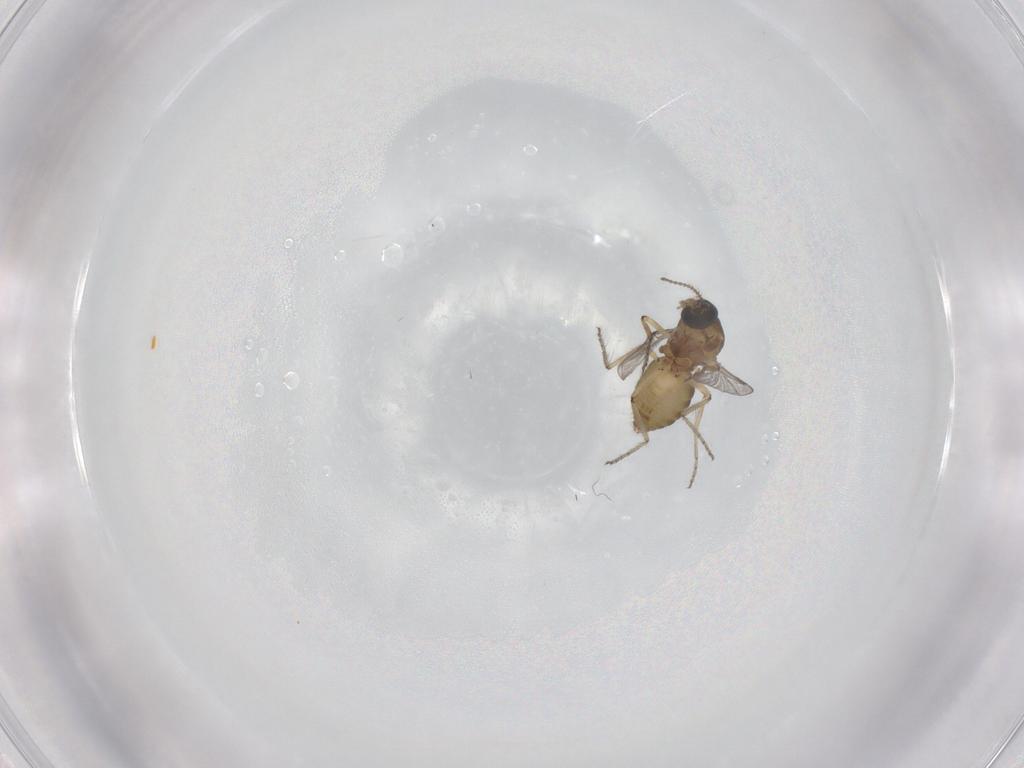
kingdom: Animalia
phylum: Arthropoda
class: Insecta
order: Diptera
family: Ceratopogonidae
